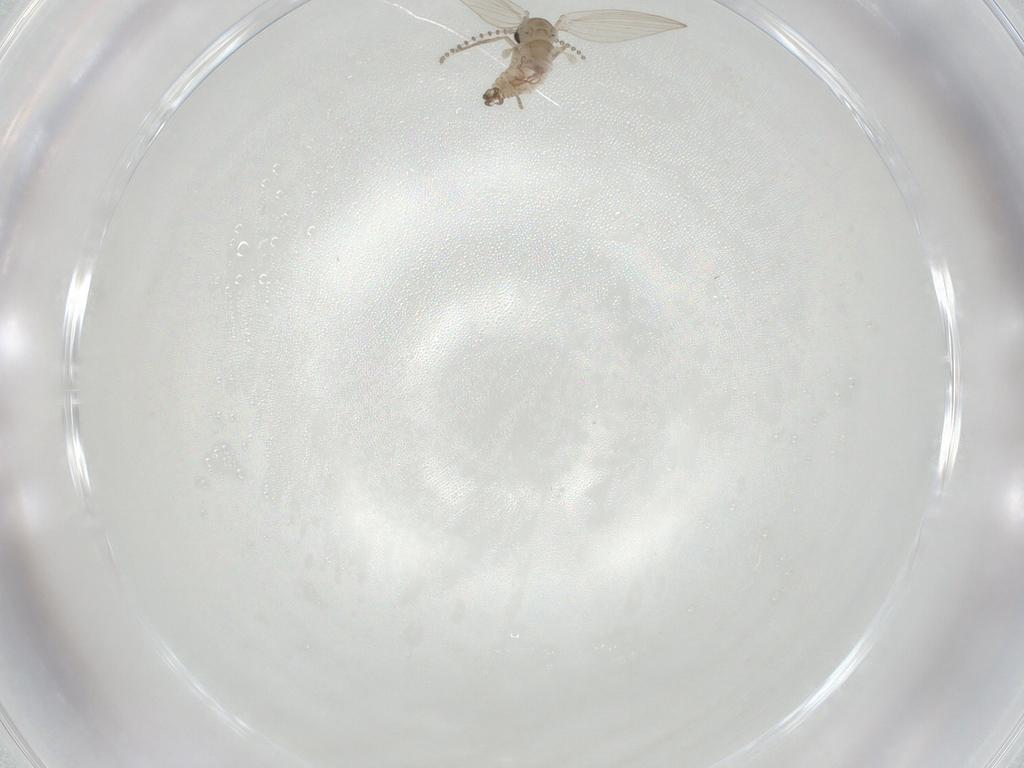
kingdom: Animalia
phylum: Arthropoda
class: Insecta
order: Diptera
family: Psychodidae
